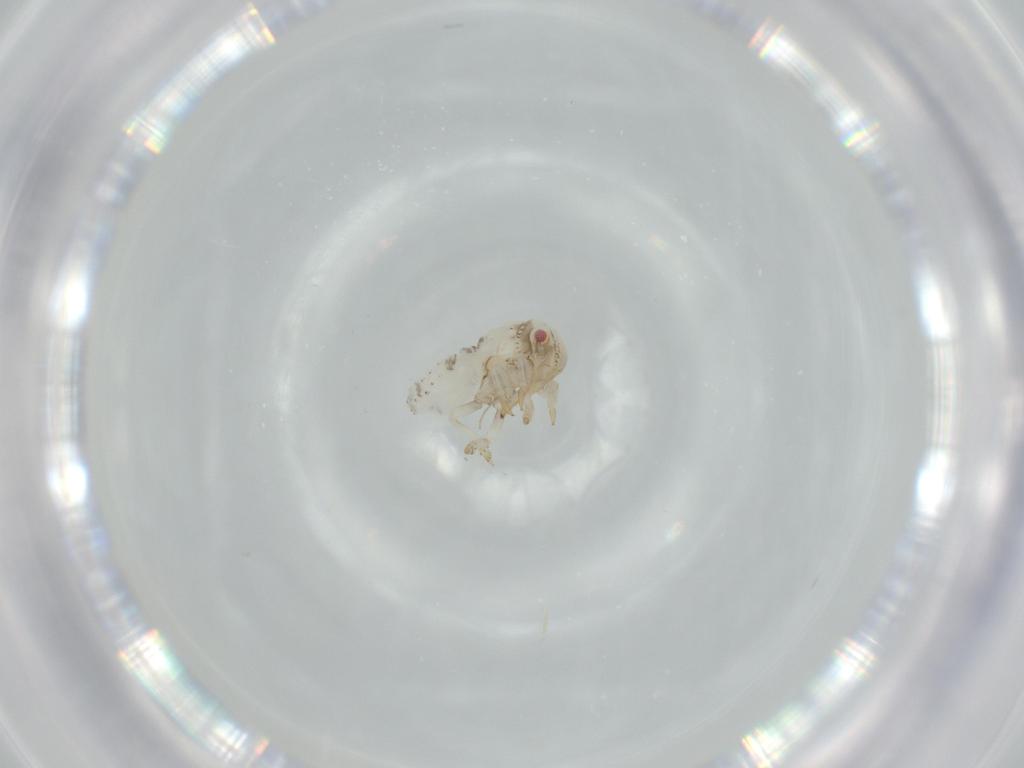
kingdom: Animalia
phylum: Arthropoda
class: Insecta
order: Hemiptera
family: Acanaloniidae
